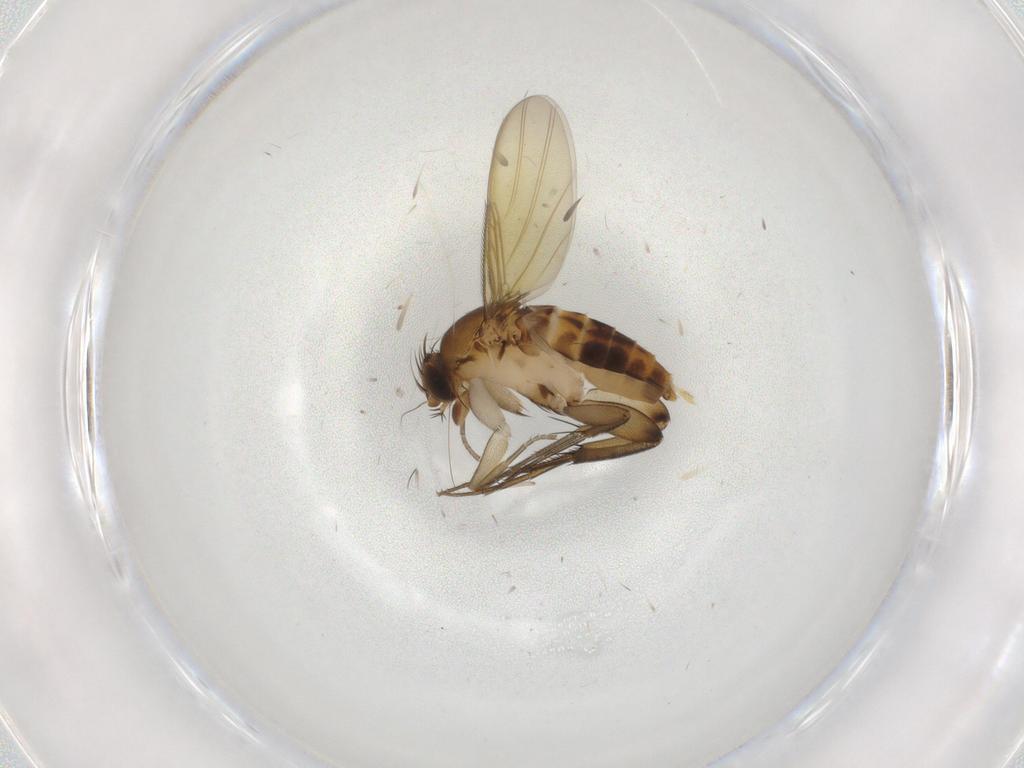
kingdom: Animalia
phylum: Arthropoda
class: Insecta
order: Diptera
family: Phoridae
